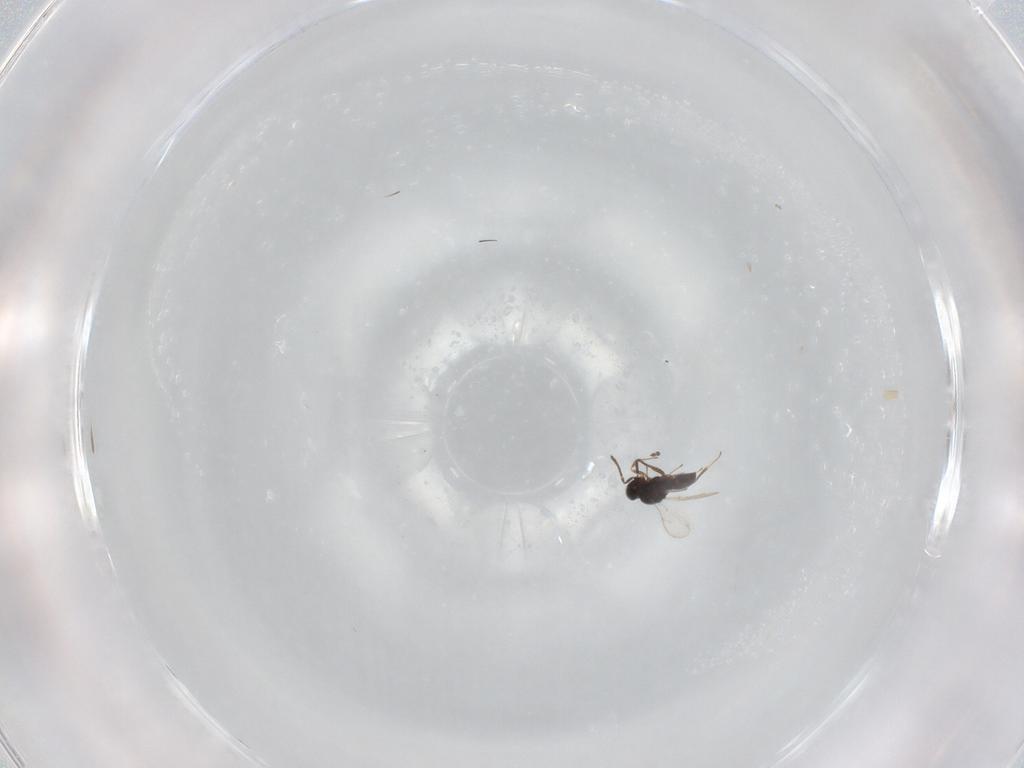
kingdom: Animalia
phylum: Arthropoda
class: Insecta
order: Hymenoptera
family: Scelionidae
